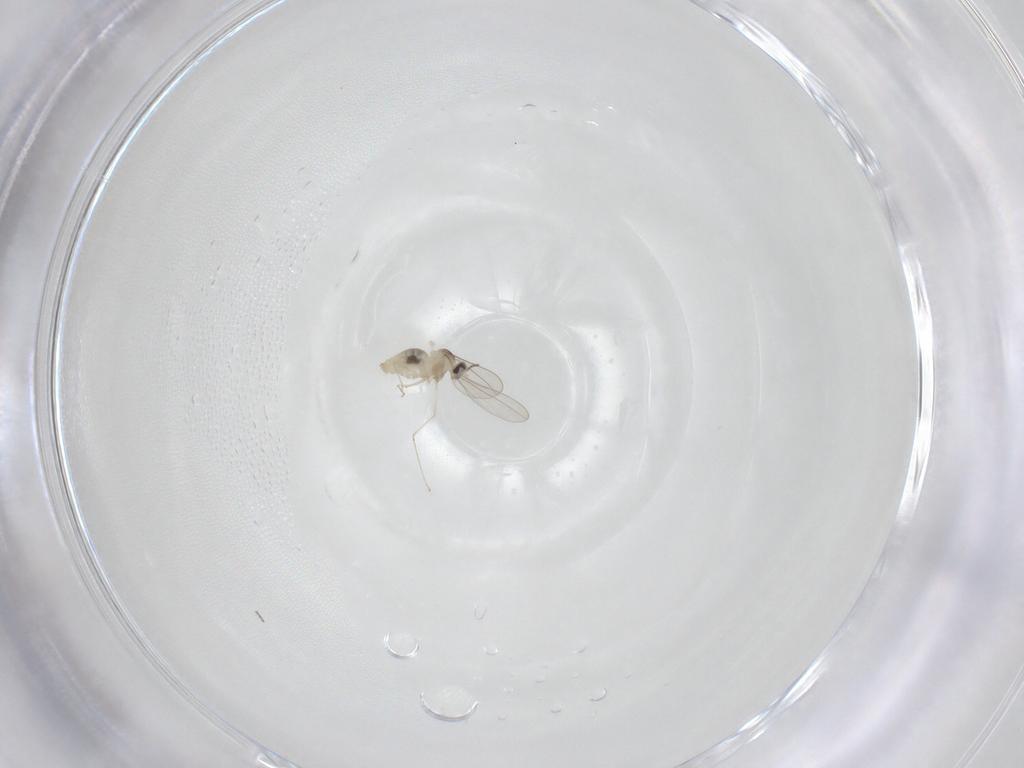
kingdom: Animalia
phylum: Arthropoda
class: Insecta
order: Diptera
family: Cecidomyiidae
